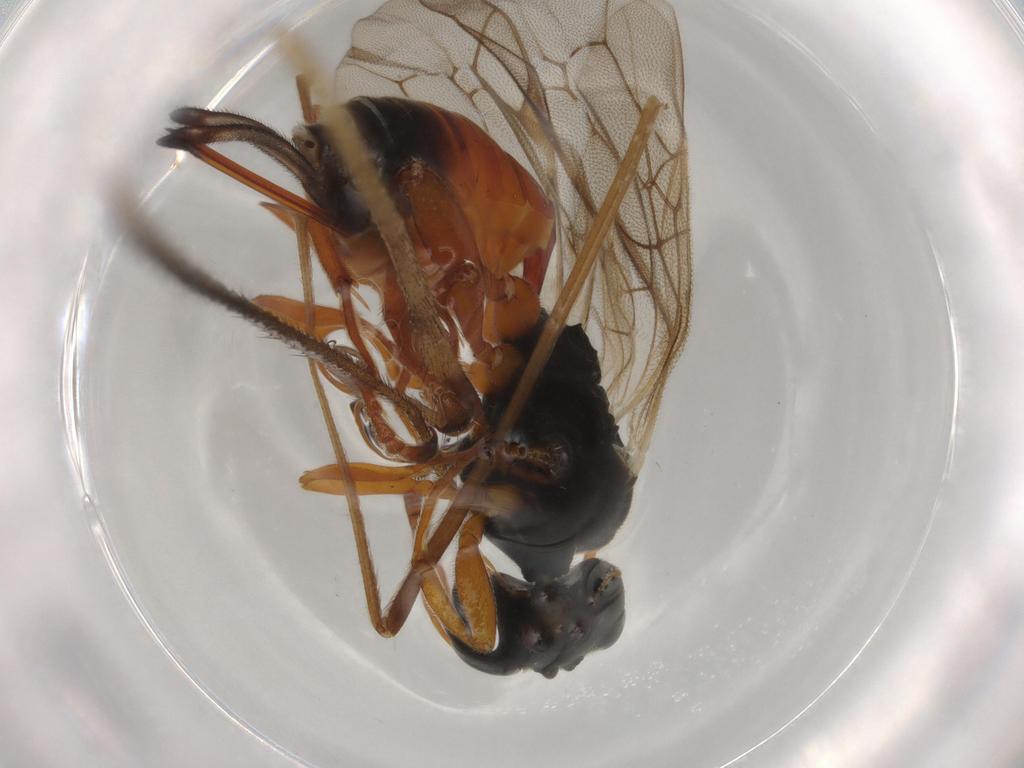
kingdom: Animalia
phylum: Arthropoda
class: Insecta
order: Hymenoptera
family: Ichneumonidae
